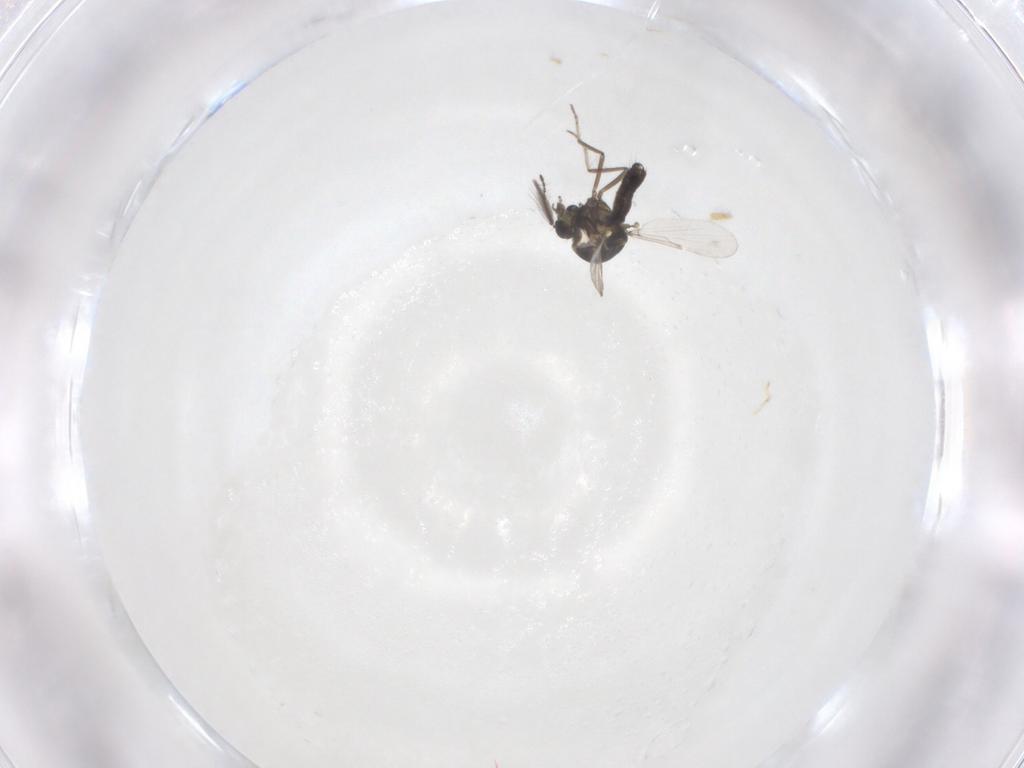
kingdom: Animalia
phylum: Arthropoda
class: Insecta
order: Diptera
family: Ceratopogonidae
